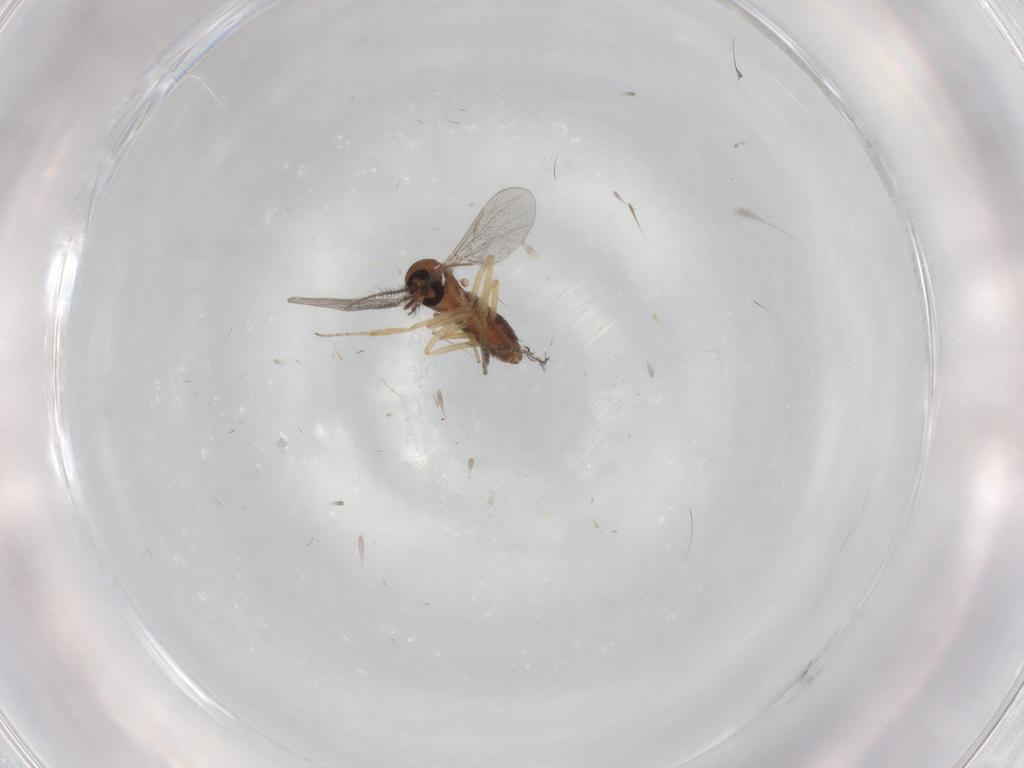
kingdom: Animalia
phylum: Arthropoda
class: Insecta
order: Diptera
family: Ceratopogonidae
